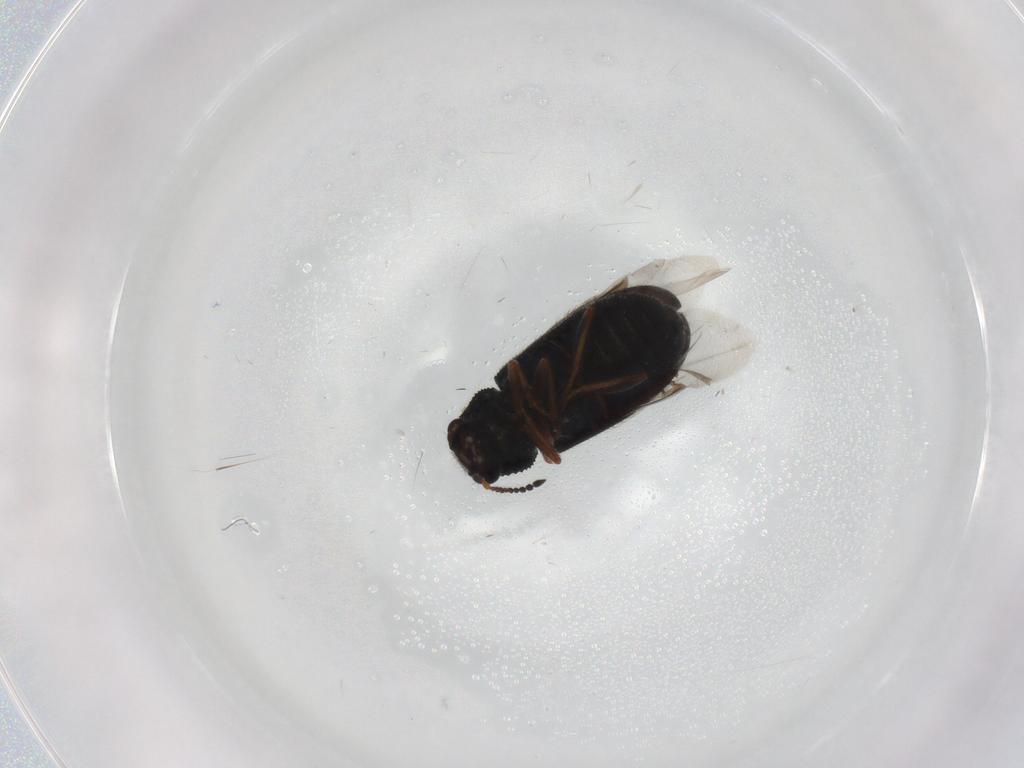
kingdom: Animalia
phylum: Arthropoda
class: Insecta
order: Coleoptera
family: Melyridae
